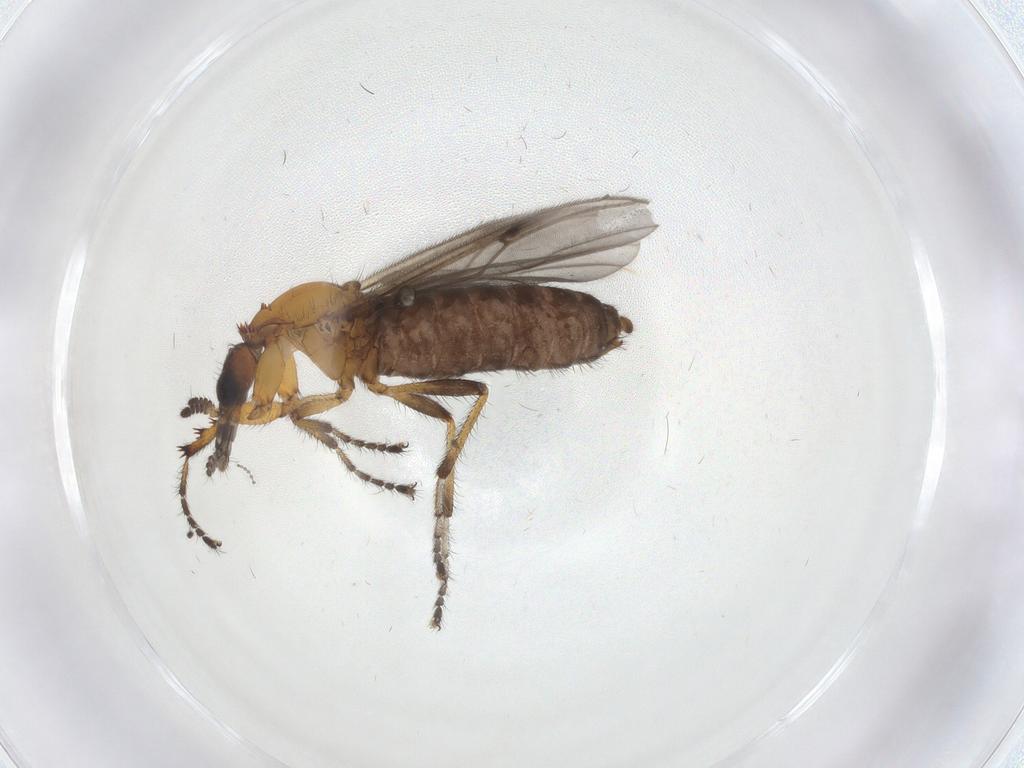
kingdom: Animalia
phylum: Arthropoda
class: Insecta
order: Diptera
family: Bibionidae
